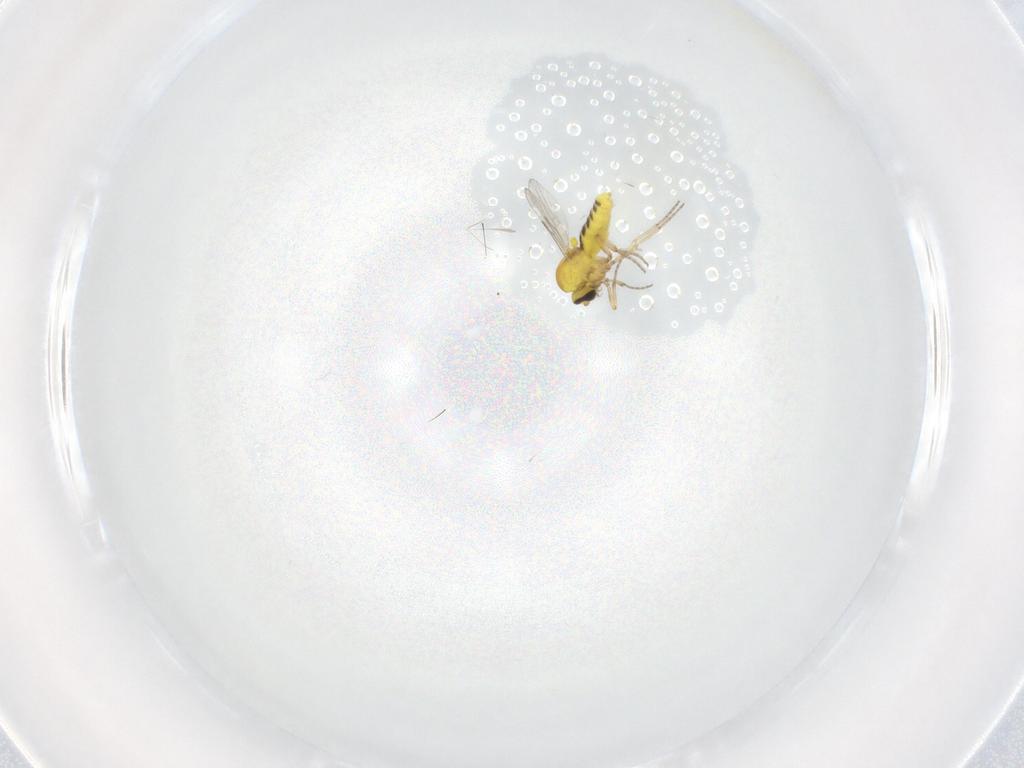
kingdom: Animalia
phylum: Arthropoda
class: Insecta
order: Diptera
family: Ceratopogonidae
